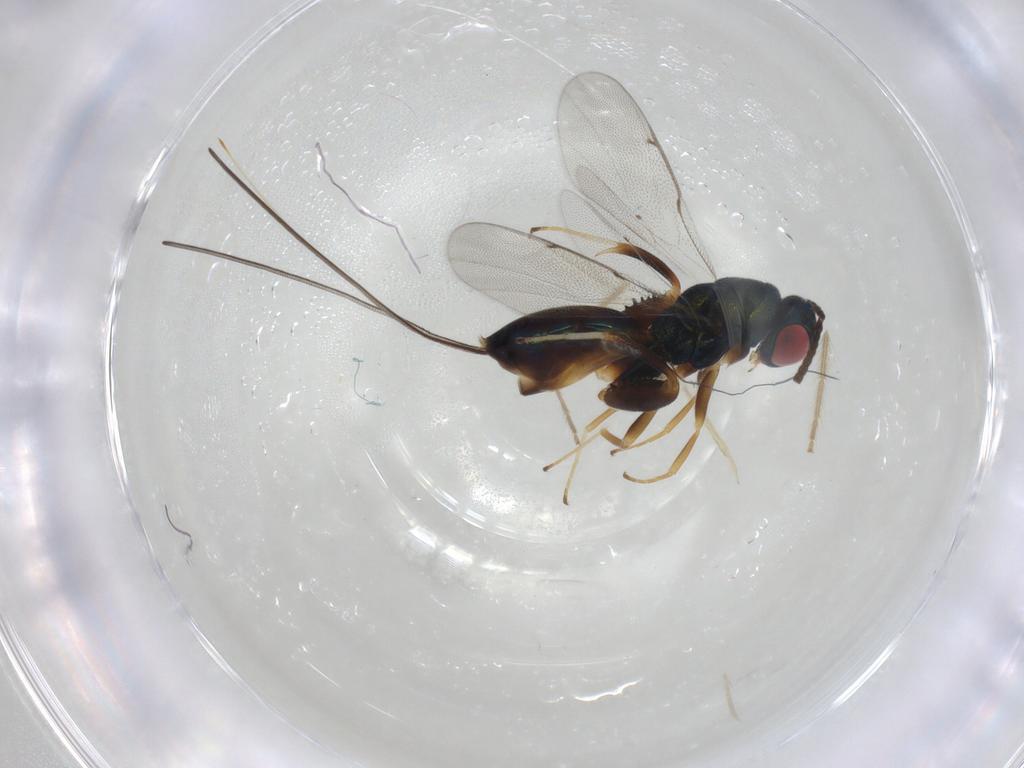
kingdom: Animalia
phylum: Arthropoda
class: Insecta
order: Hymenoptera
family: Torymidae
